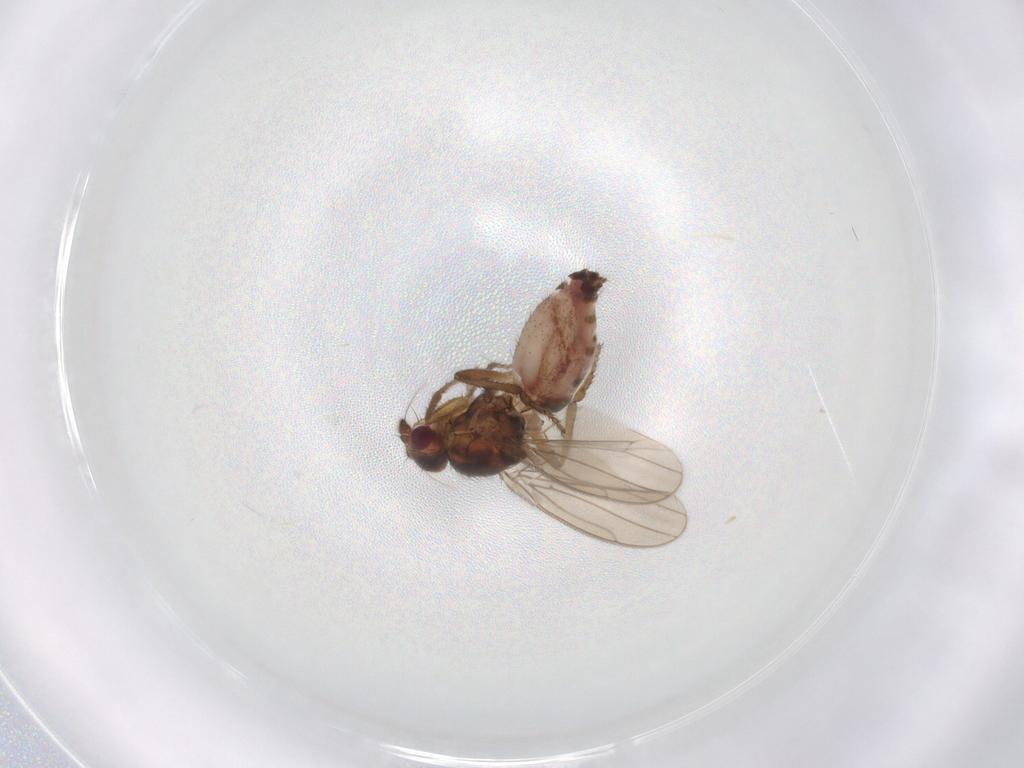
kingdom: Animalia
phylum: Arthropoda
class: Insecta
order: Diptera
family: Sphaeroceridae
